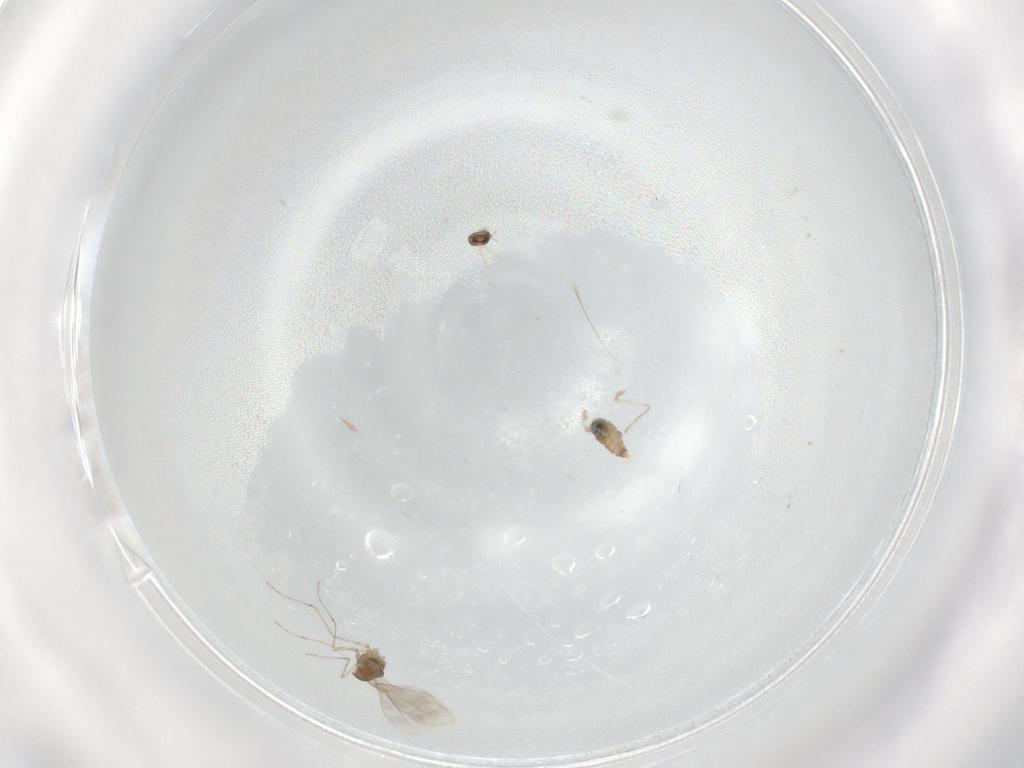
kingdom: Animalia
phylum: Arthropoda
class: Insecta
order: Diptera
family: Cecidomyiidae
